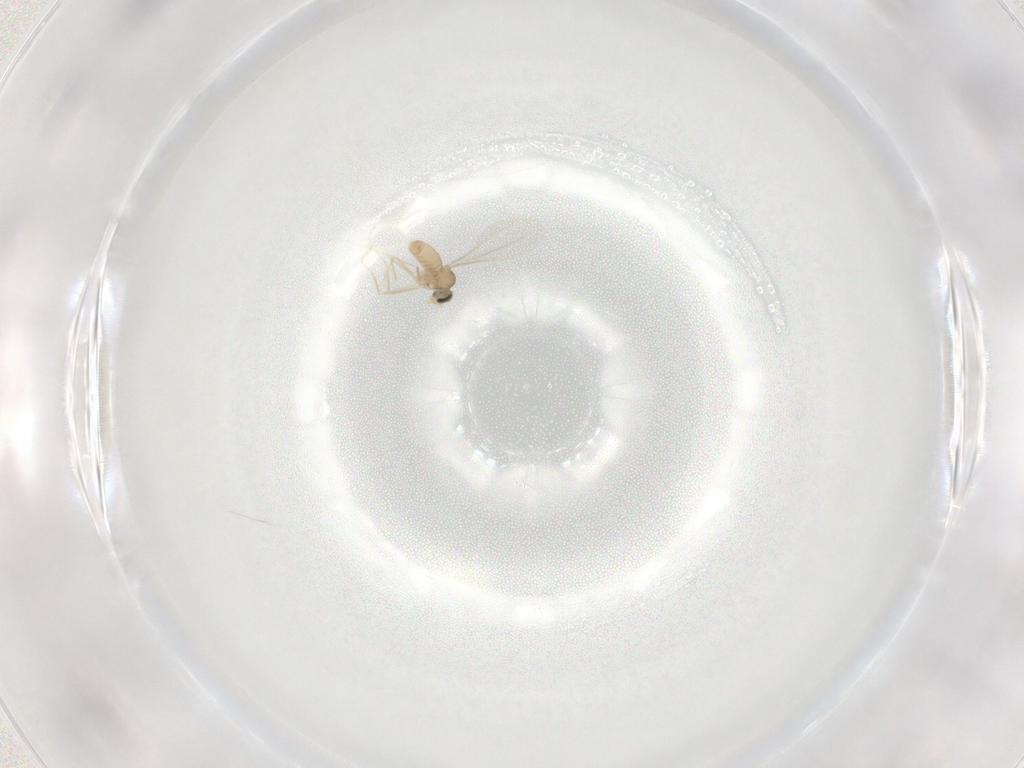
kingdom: Animalia
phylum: Arthropoda
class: Insecta
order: Diptera
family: Cecidomyiidae
